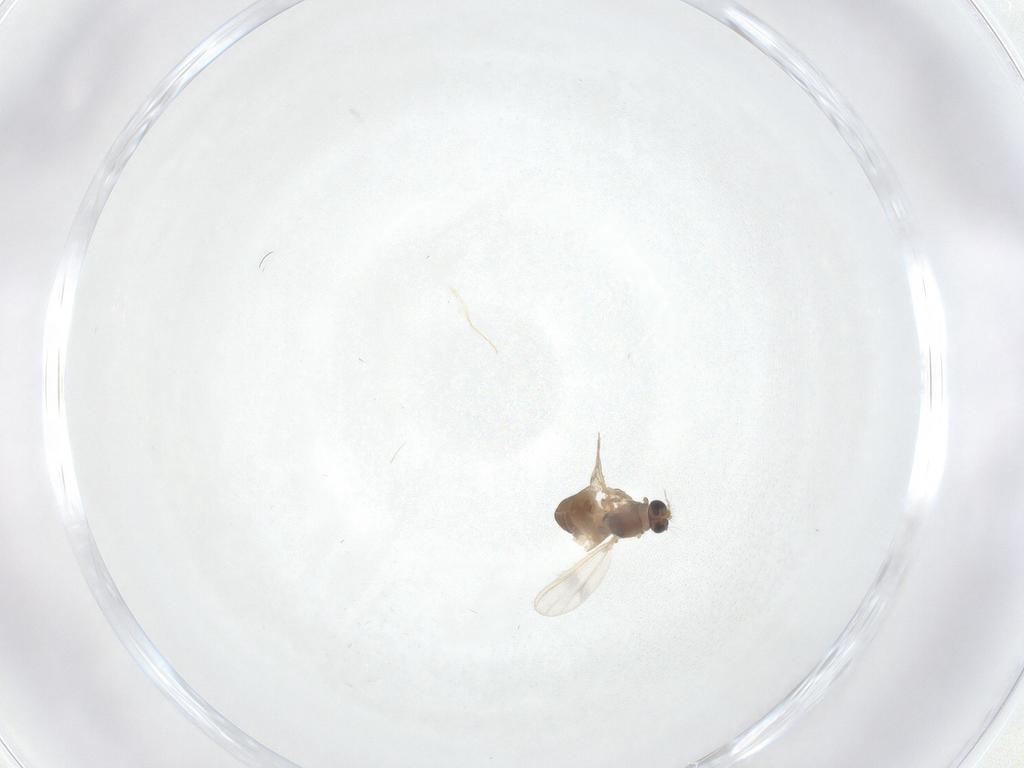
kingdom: Animalia
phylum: Arthropoda
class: Insecta
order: Diptera
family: Chironomidae
